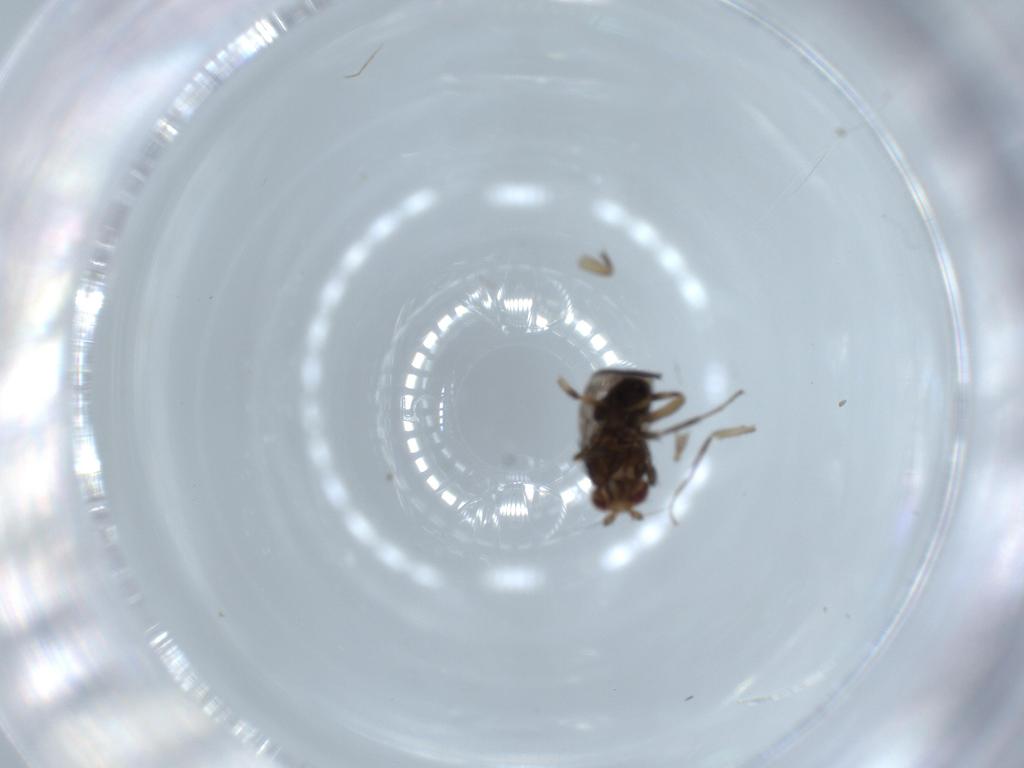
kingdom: Animalia
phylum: Arthropoda
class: Insecta
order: Diptera
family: Sphaeroceridae
